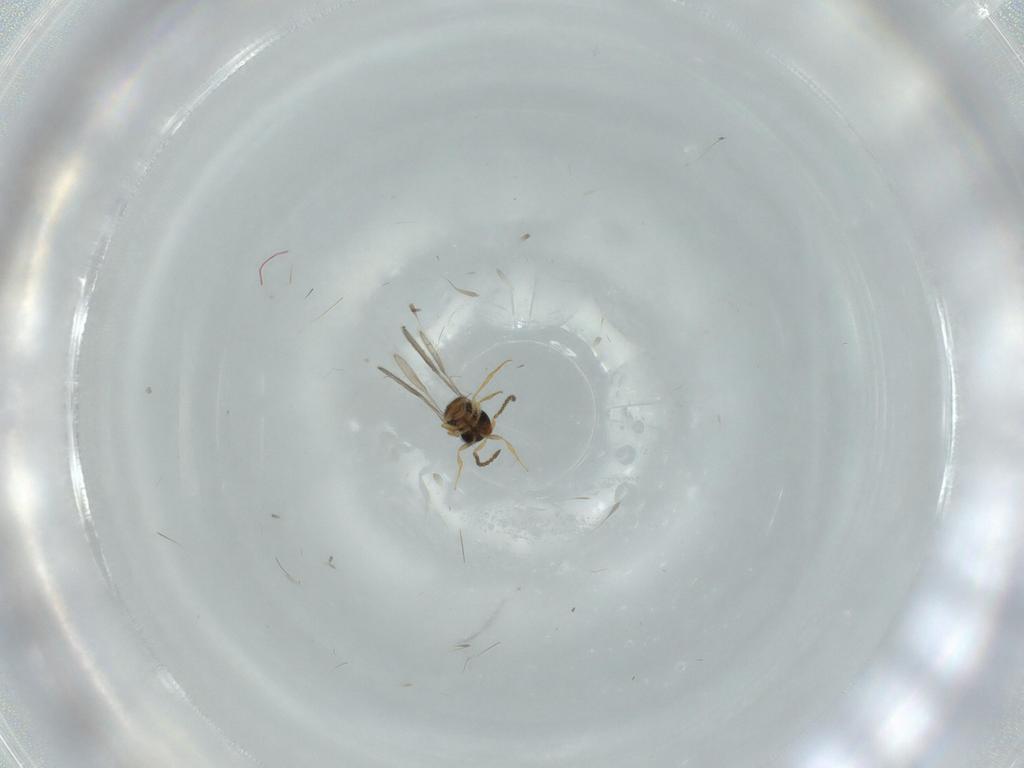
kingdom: Animalia
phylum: Arthropoda
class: Insecta
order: Hymenoptera
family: Scelionidae
